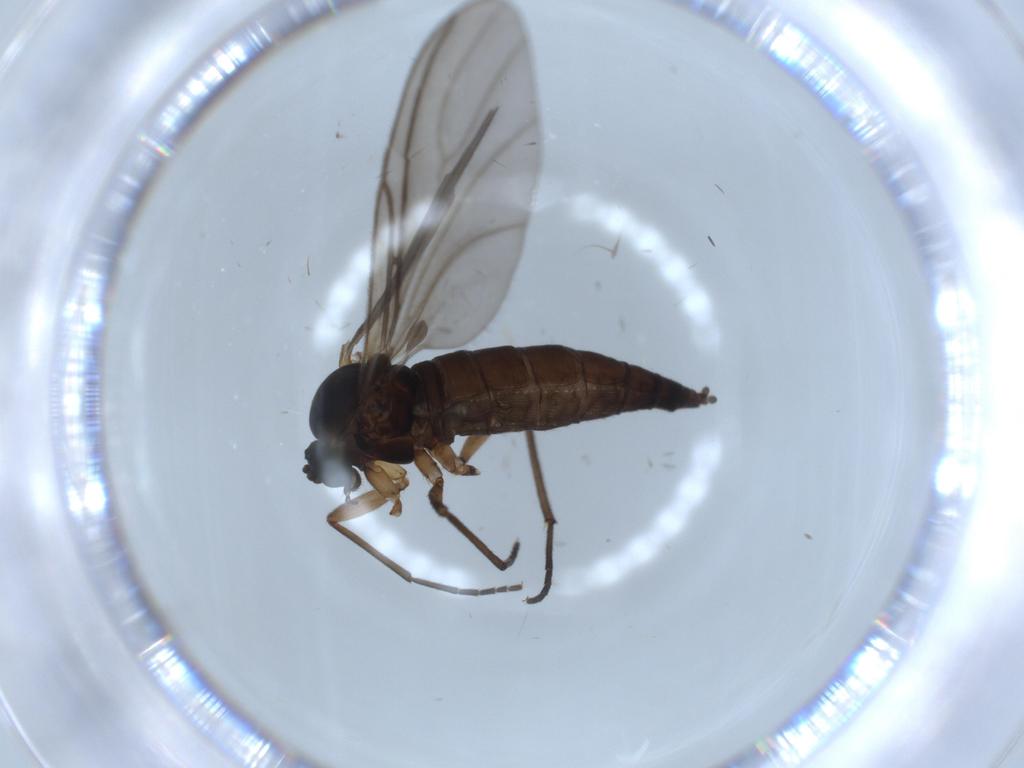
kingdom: Animalia
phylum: Arthropoda
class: Insecta
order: Diptera
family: Sciaridae
